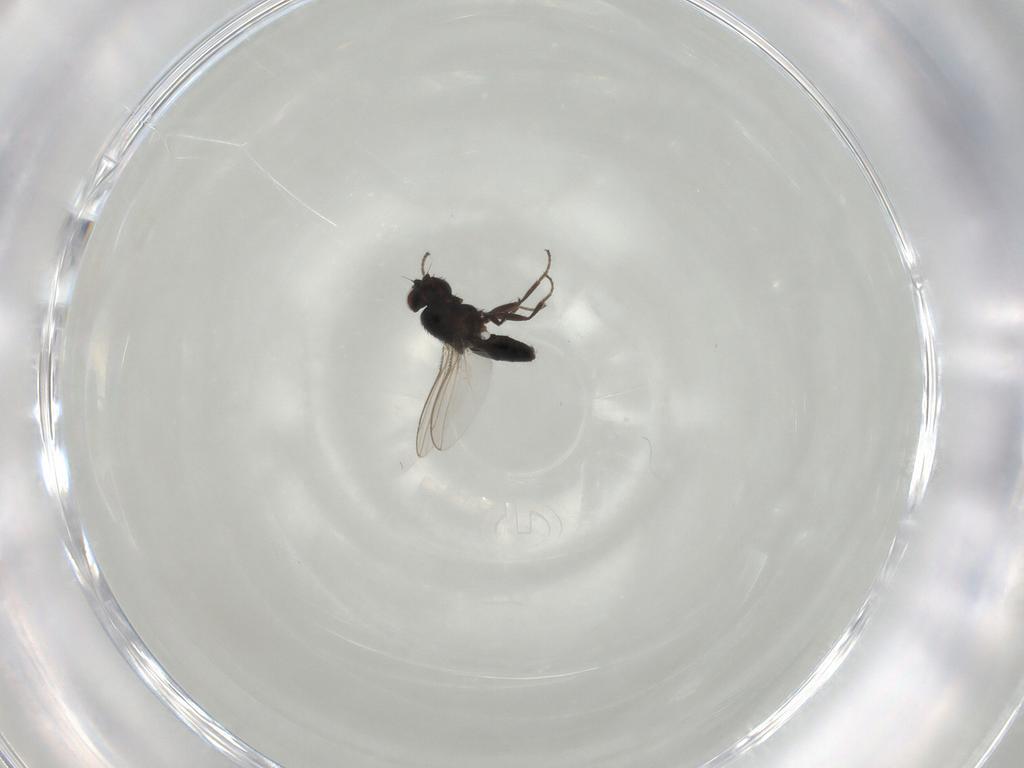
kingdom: Animalia
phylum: Arthropoda
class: Insecta
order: Diptera
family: Carnidae
